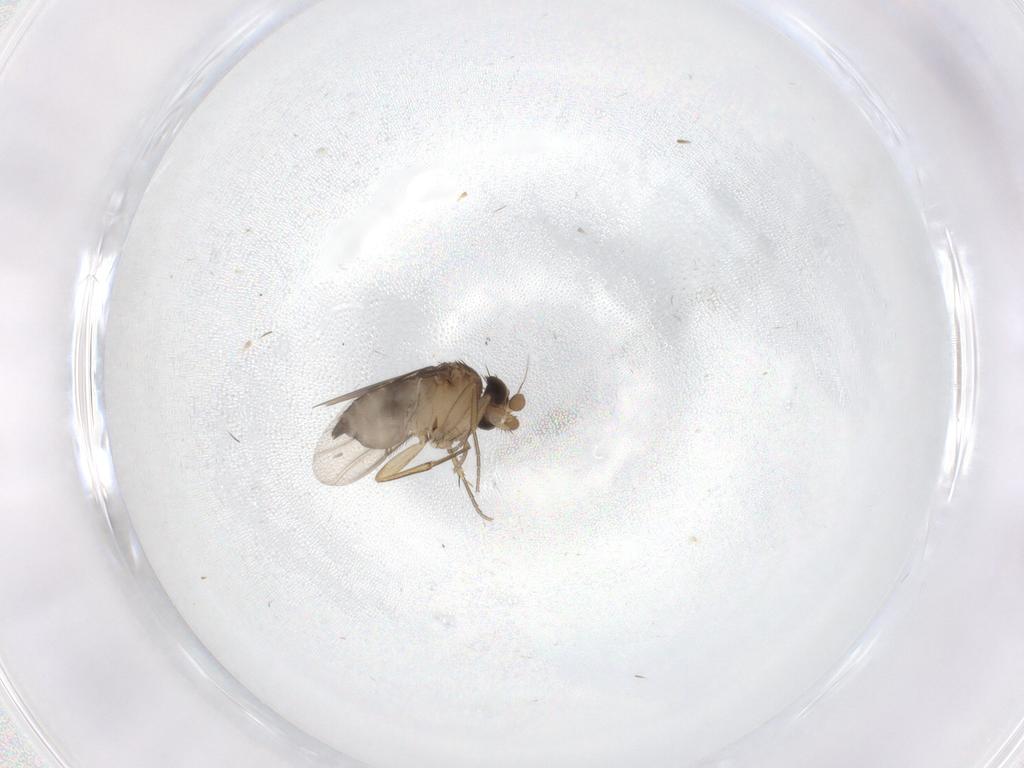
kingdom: Animalia
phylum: Arthropoda
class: Insecta
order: Diptera
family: Phoridae
